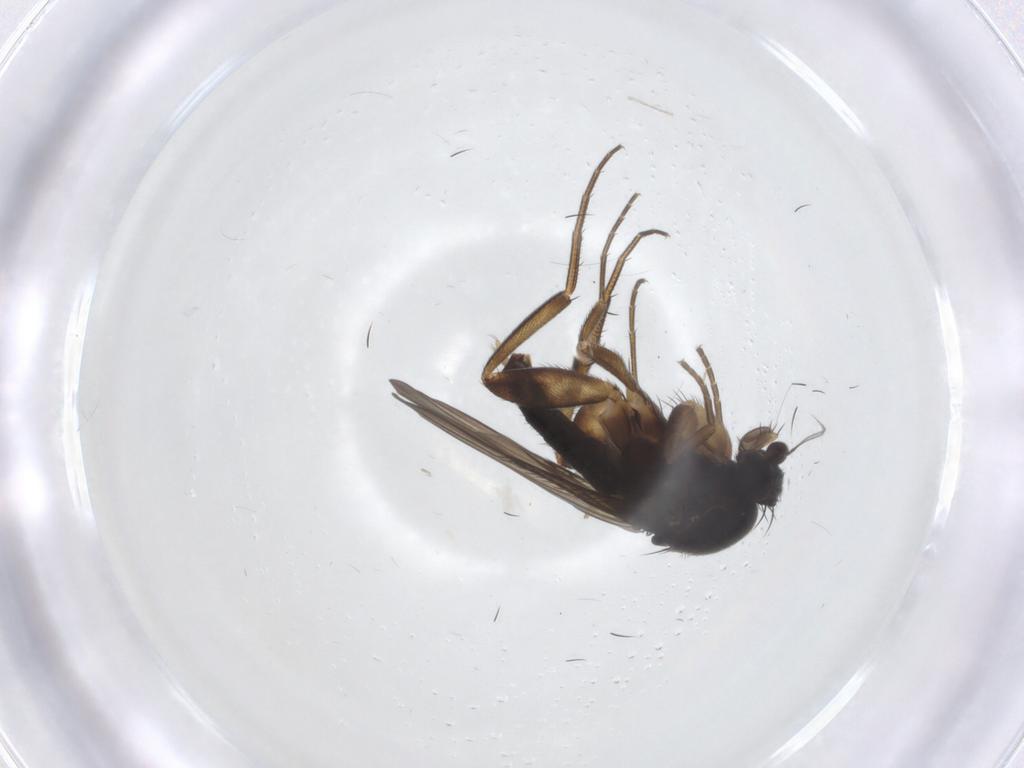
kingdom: Animalia
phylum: Arthropoda
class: Insecta
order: Diptera
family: Phoridae
